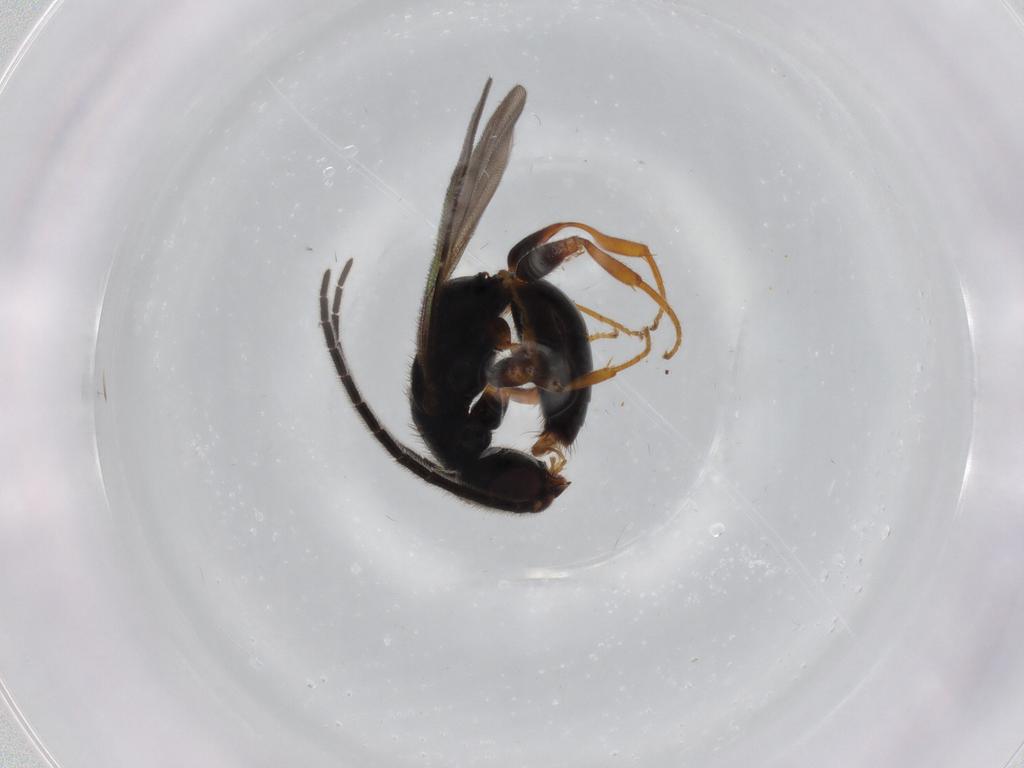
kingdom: Animalia
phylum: Arthropoda
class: Insecta
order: Hymenoptera
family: Bethylidae
